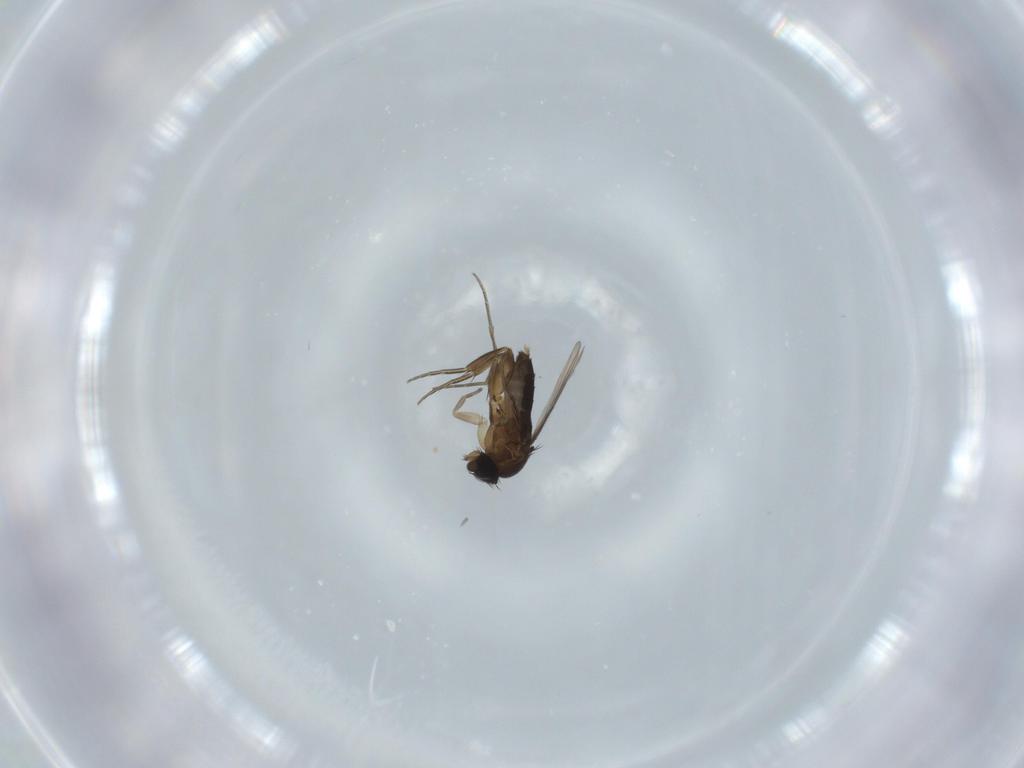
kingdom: Animalia
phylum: Arthropoda
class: Insecta
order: Diptera
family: Phoridae
